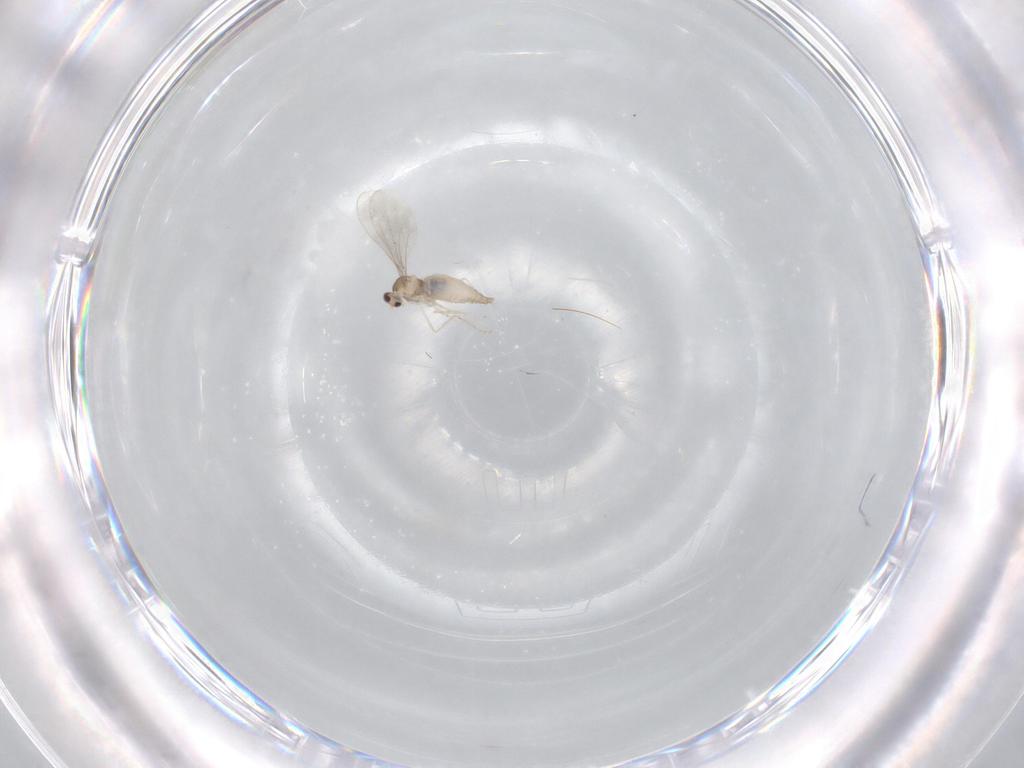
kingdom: Animalia
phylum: Arthropoda
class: Insecta
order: Diptera
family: Cecidomyiidae
